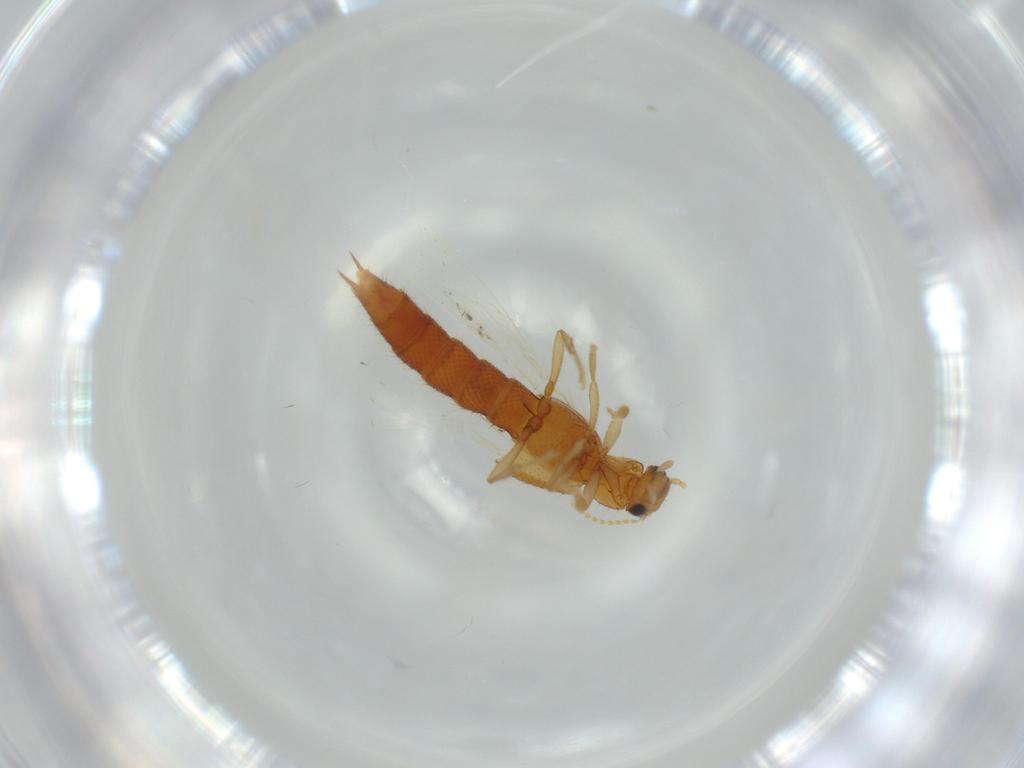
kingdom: Animalia
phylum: Arthropoda
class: Insecta
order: Coleoptera
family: Staphylinidae
